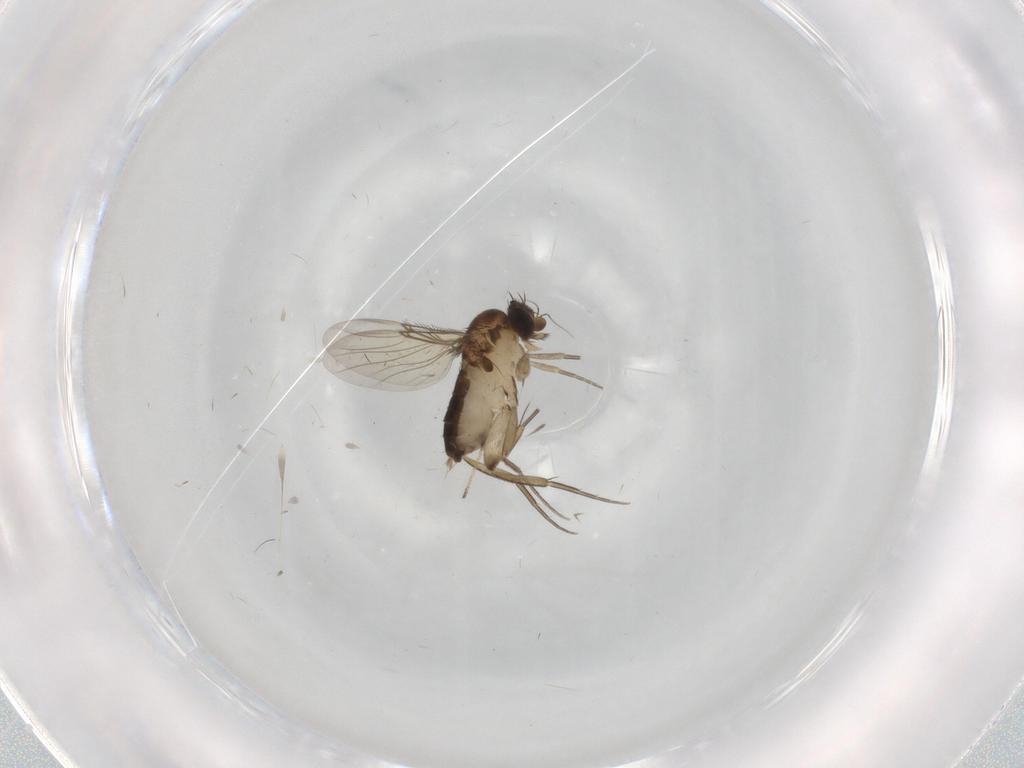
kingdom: Animalia
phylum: Arthropoda
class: Insecta
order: Diptera
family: Phoridae
